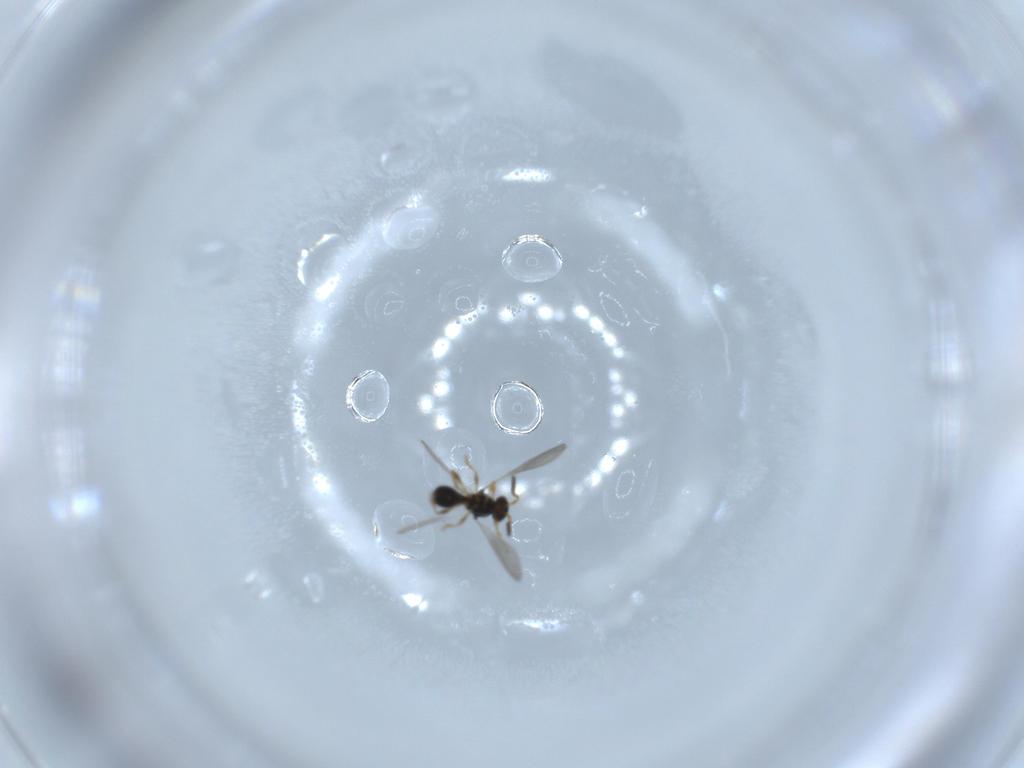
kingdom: Animalia
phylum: Arthropoda
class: Insecta
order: Hymenoptera
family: Platygastridae
